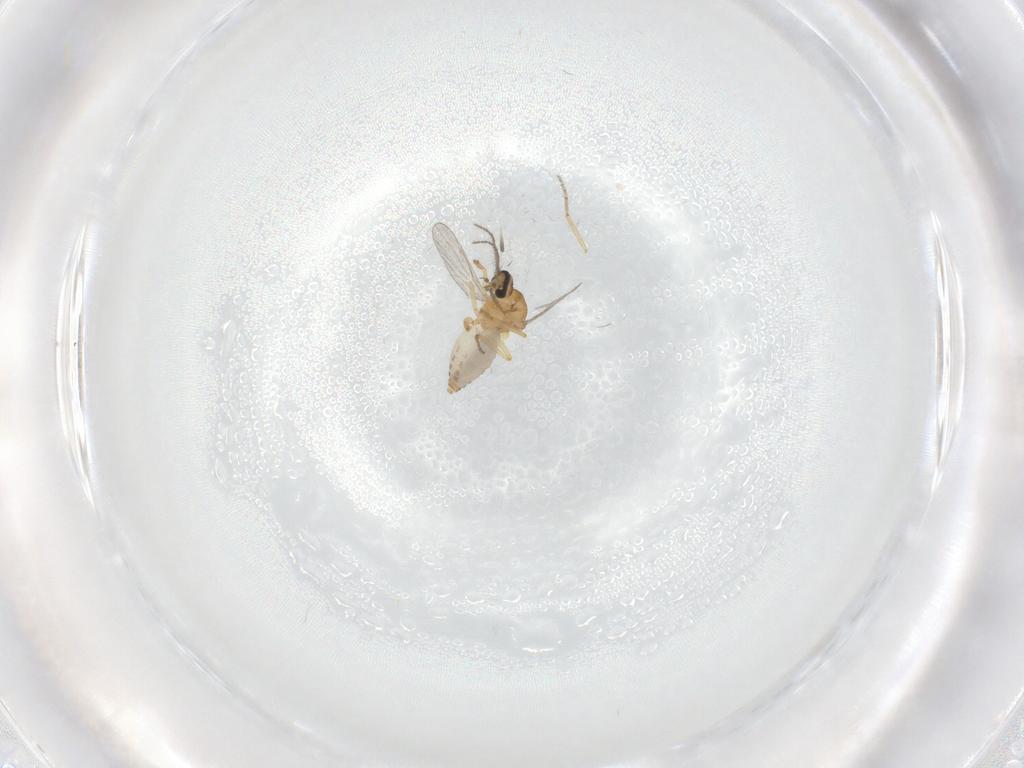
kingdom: Animalia
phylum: Arthropoda
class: Insecta
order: Diptera
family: Ceratopogonidae
